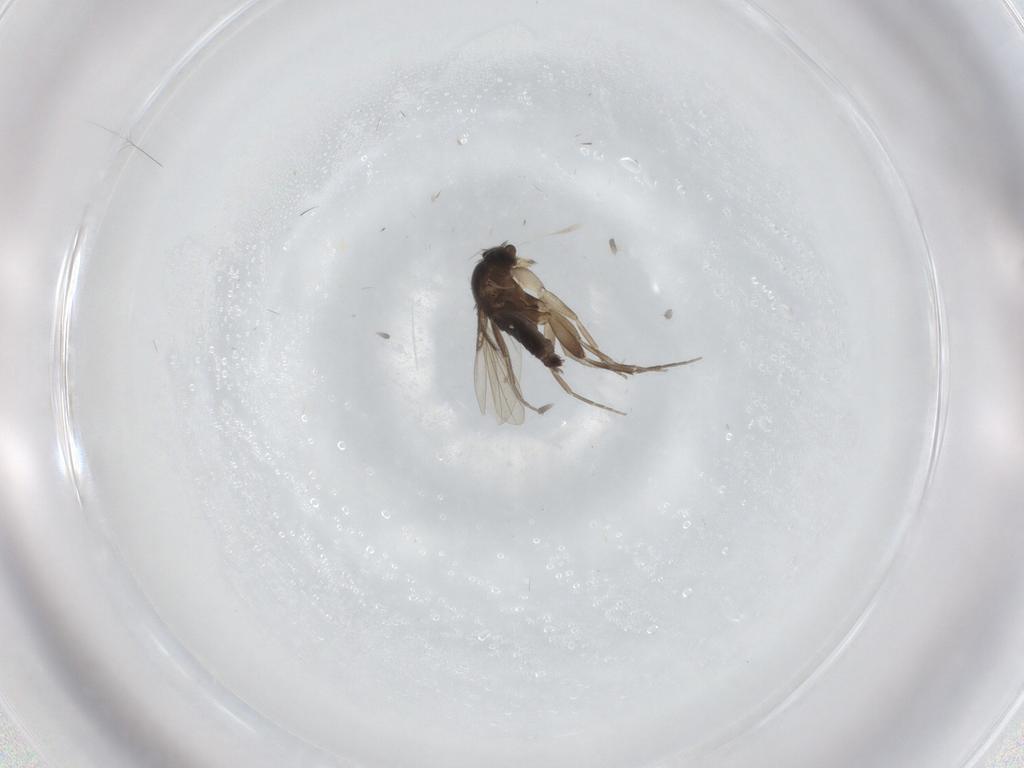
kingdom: Animalia
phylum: Arthropoda
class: Insecta
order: Diptera
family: Phoridae
